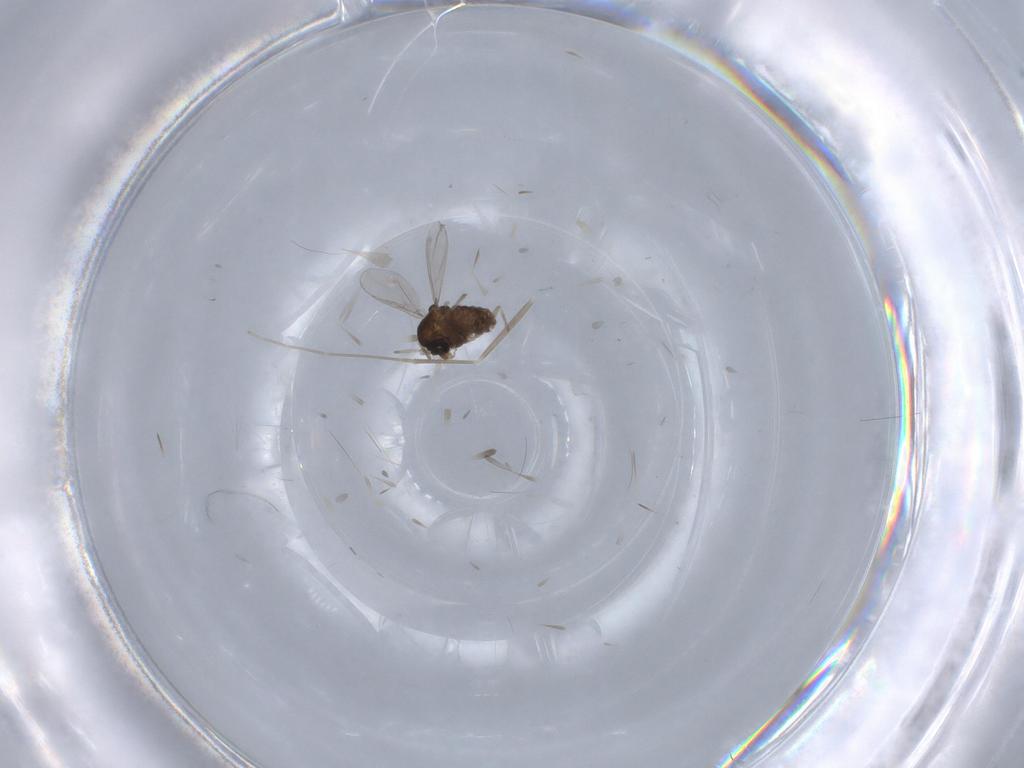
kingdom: Animalia
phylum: Arthropoda
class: Insecta
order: Diptera
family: Chironomidae
